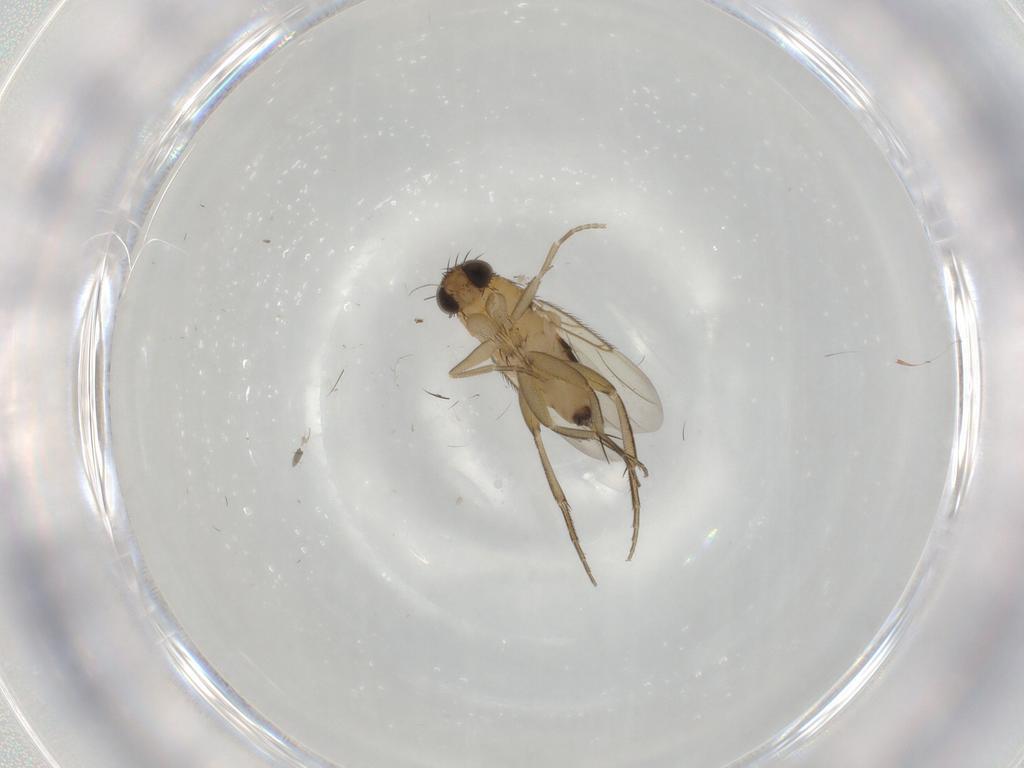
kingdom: Animalia
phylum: Arthropoda
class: Insecta
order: Diptera
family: Phoridae
